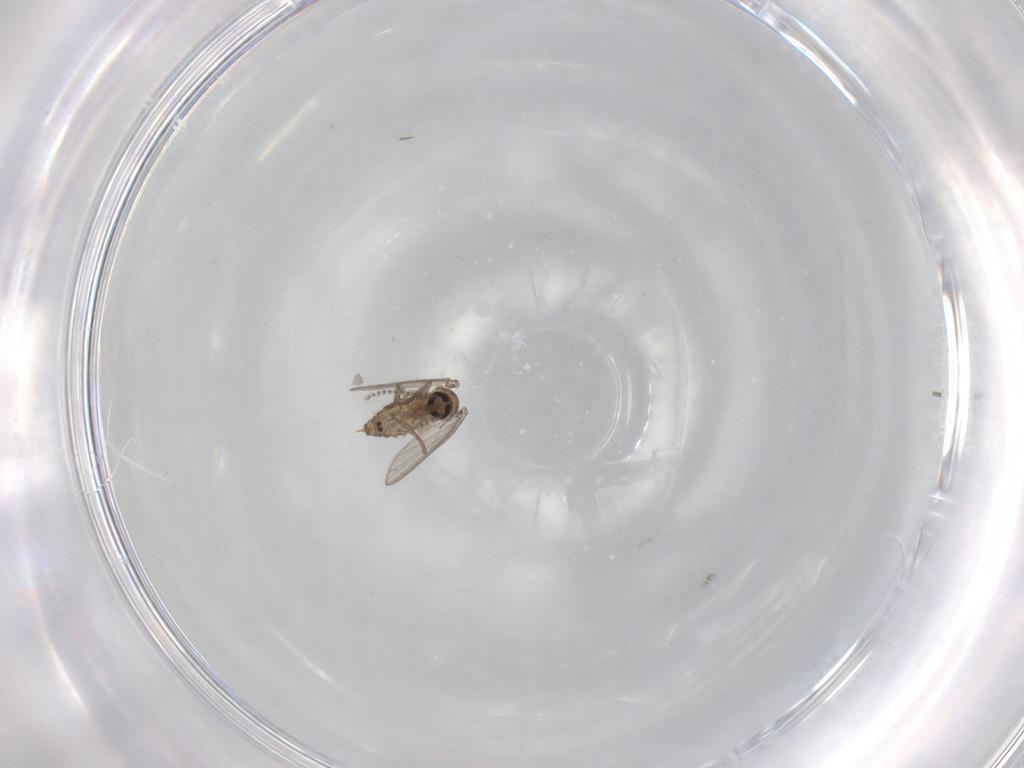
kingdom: Animalia
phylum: Arthropoda
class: Insecta
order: Diptera
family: Psychodidae
